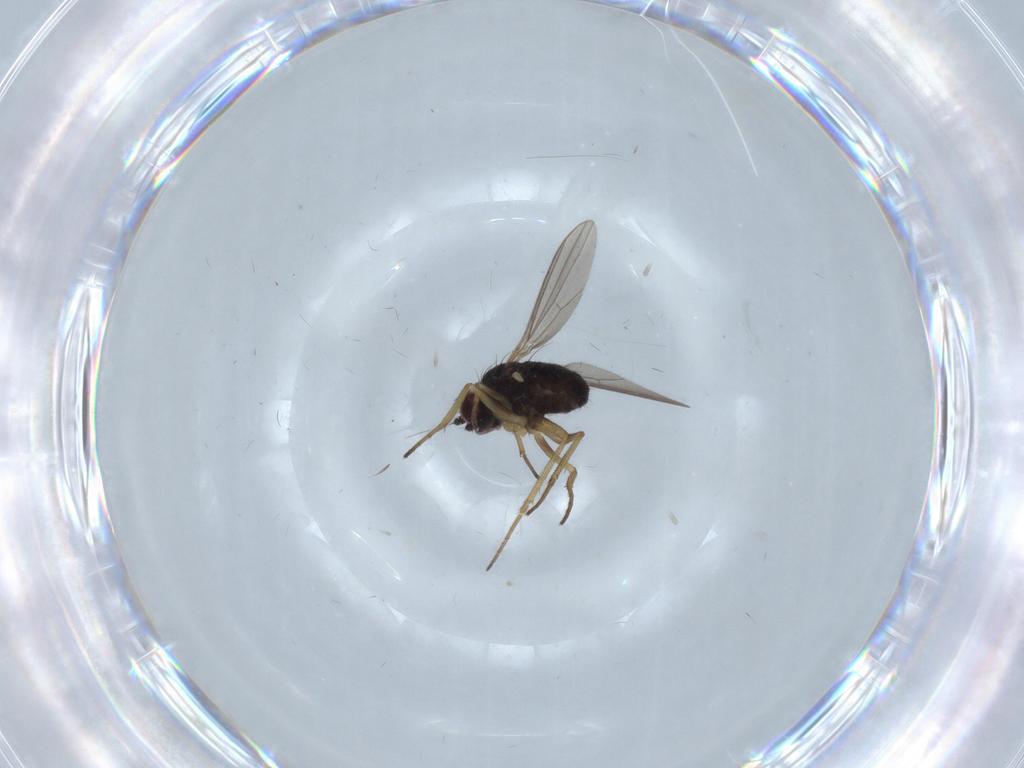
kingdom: Animalia
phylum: Arthropoda
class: Insecta
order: Diptera
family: Dolichopodidae
